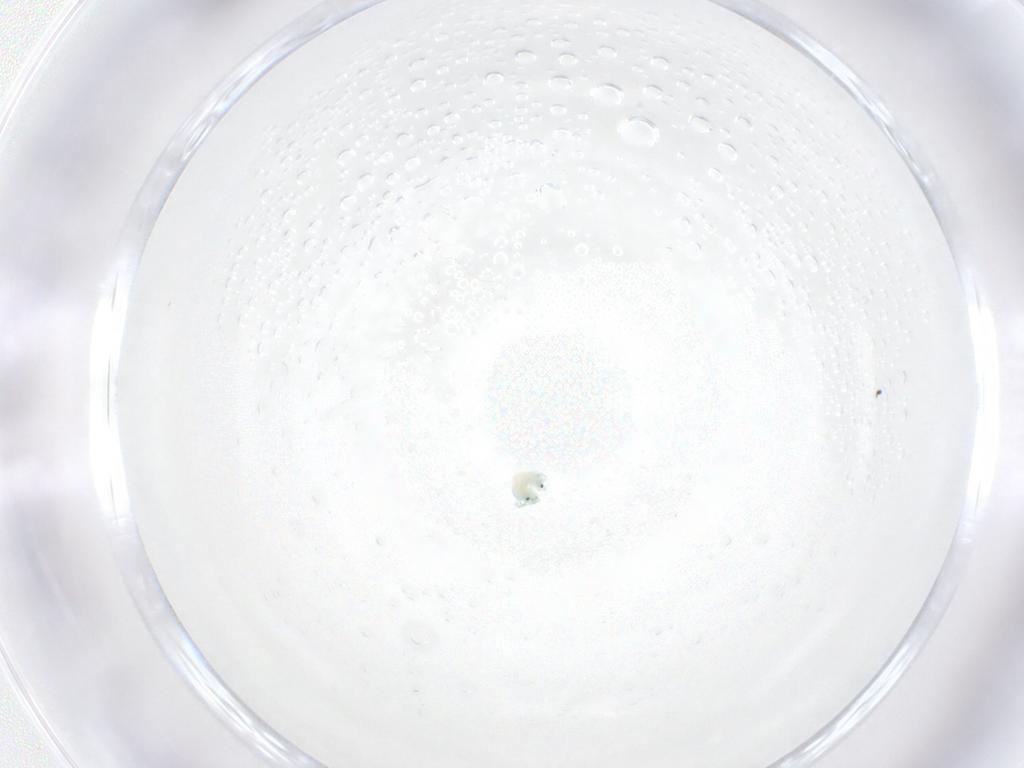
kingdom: Animalia
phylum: Arthropoda
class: Arachnida
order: Trombidiformes
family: Arrenuridae
